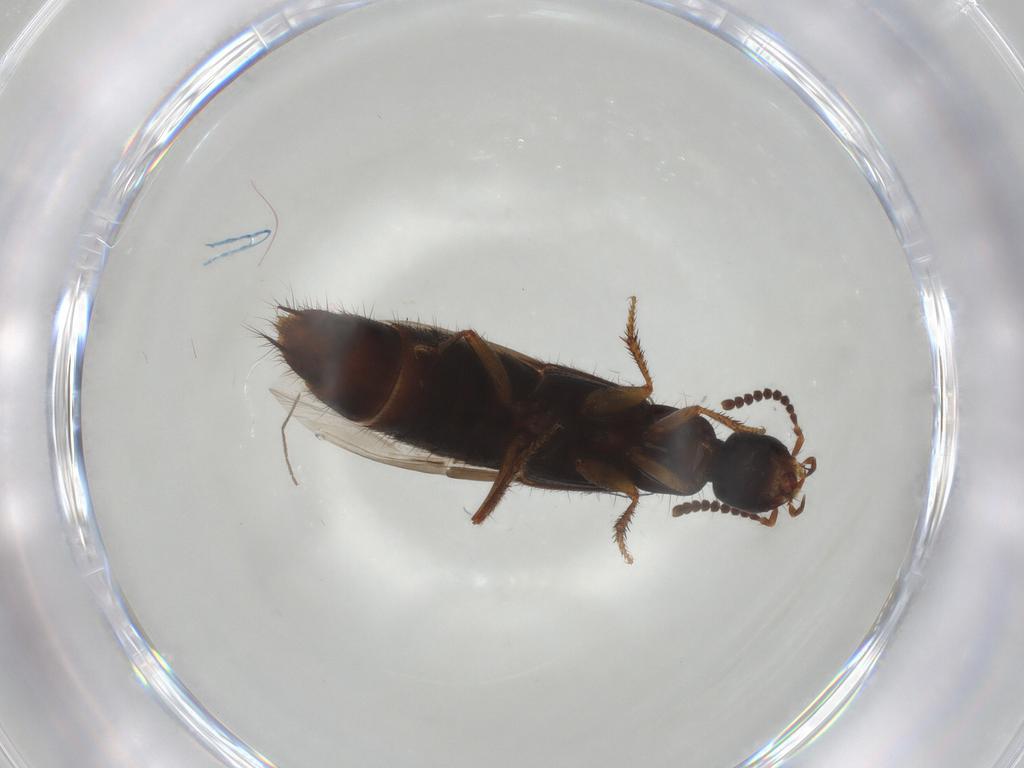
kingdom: Animalia
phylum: Arthropoda
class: Insecta
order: Coleoptera
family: Staphylinidae
